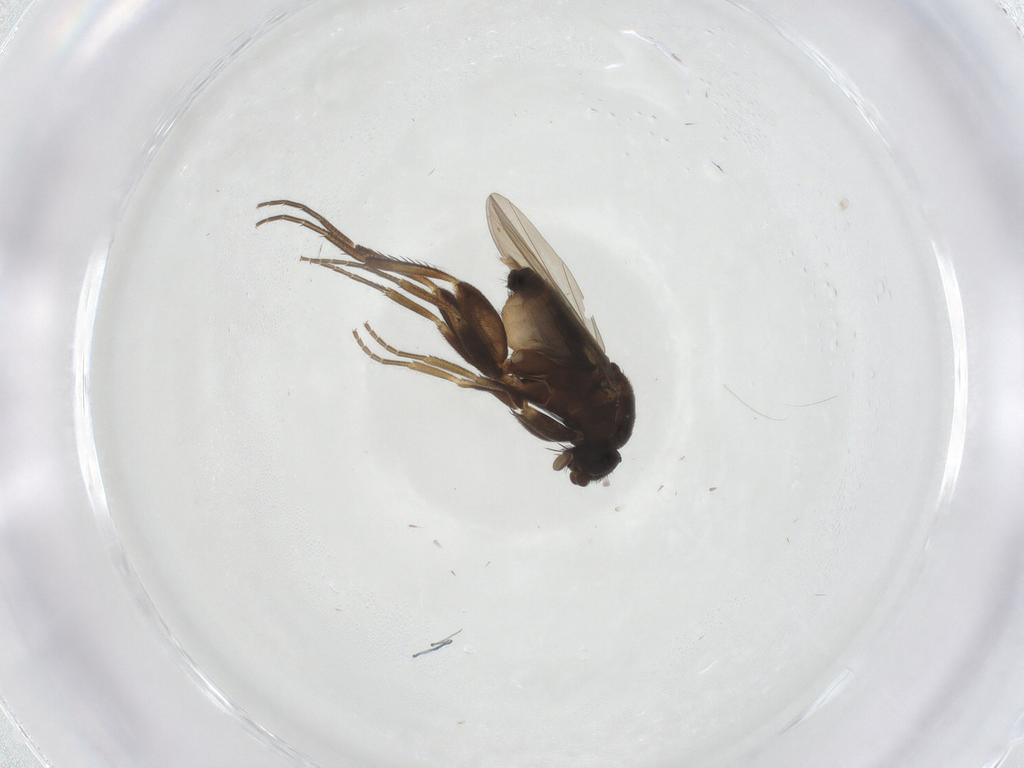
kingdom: Animalia
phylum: Arthropoda
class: Insecta
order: Diptera
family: Phoridae
